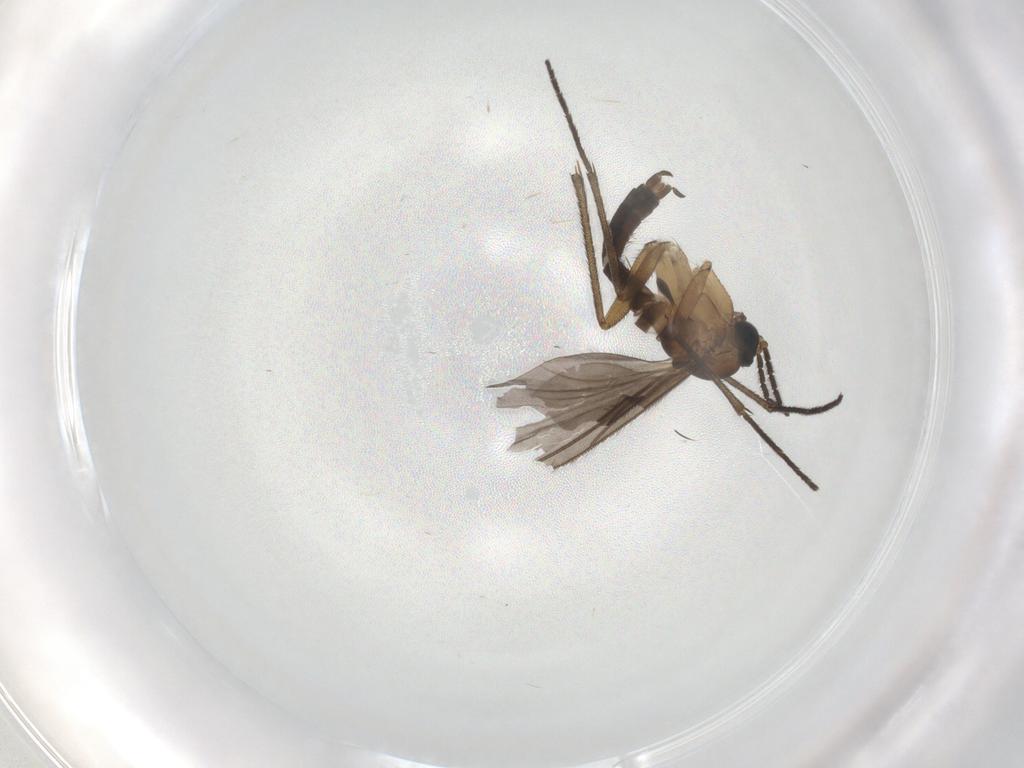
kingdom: Animalia
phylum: Arthropoda
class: Insecta
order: Diptera
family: Sciaridae
